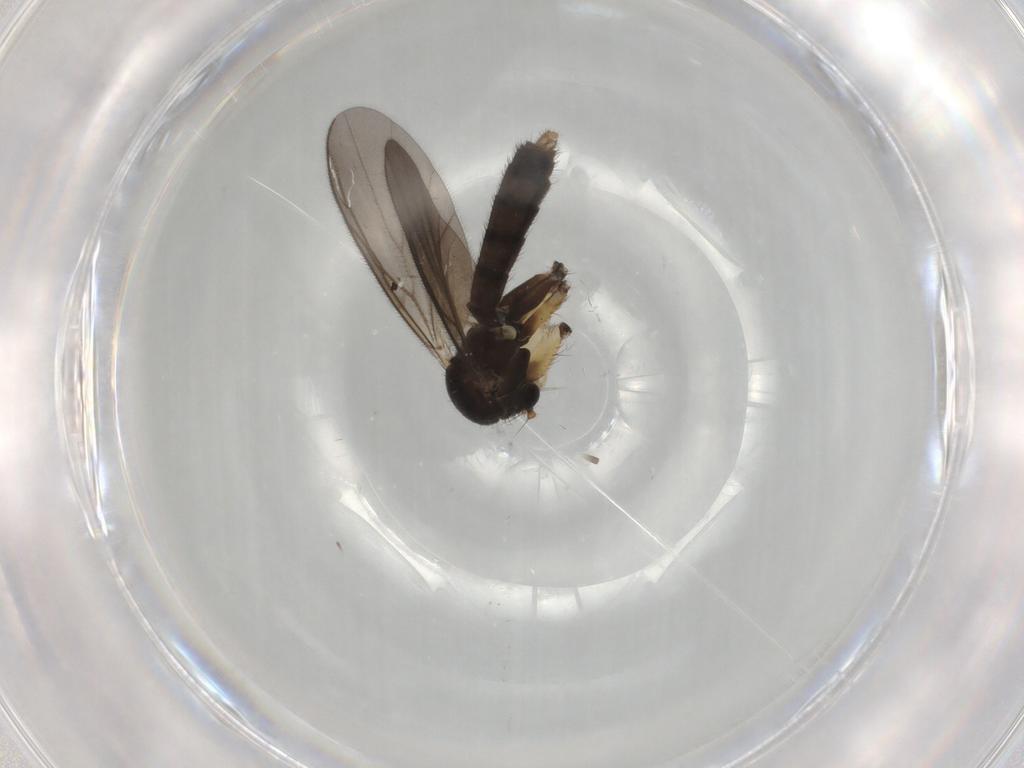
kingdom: Animalia
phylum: Arthropoda
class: Insecta
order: Diptera
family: Mycetophilidae
